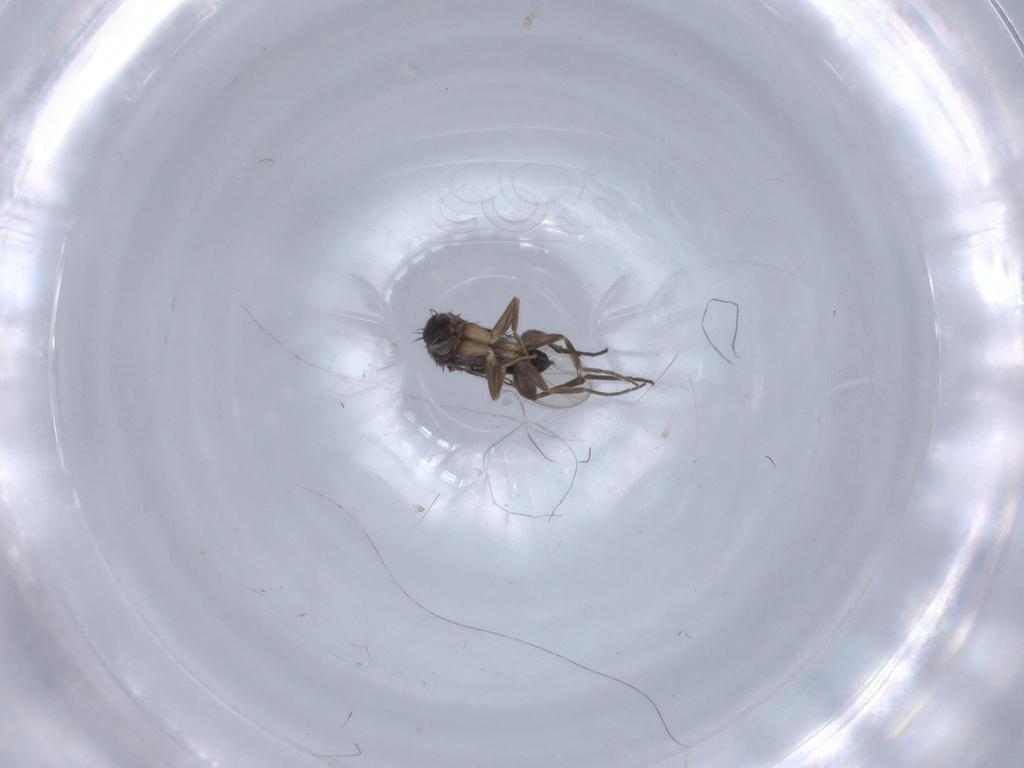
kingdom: Animalia
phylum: Arthropoda
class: Insecta
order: Diptera
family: Phoridae
